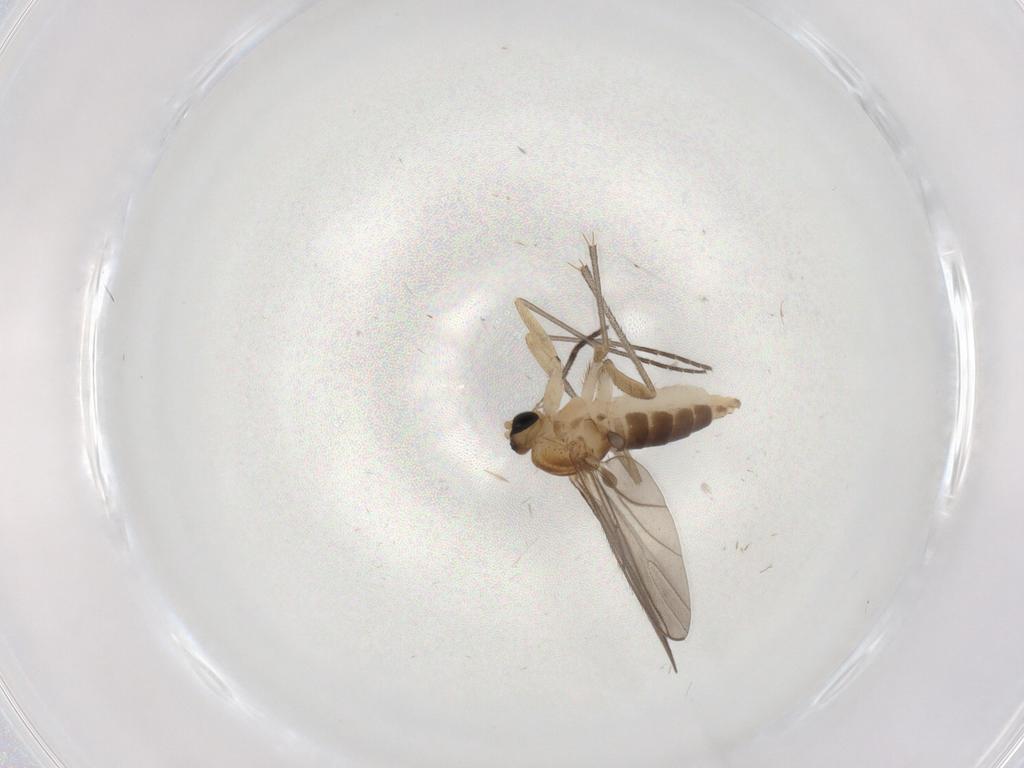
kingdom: Animalia
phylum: Arthropoda
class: Insecta
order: Diptera
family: Sciaridae
